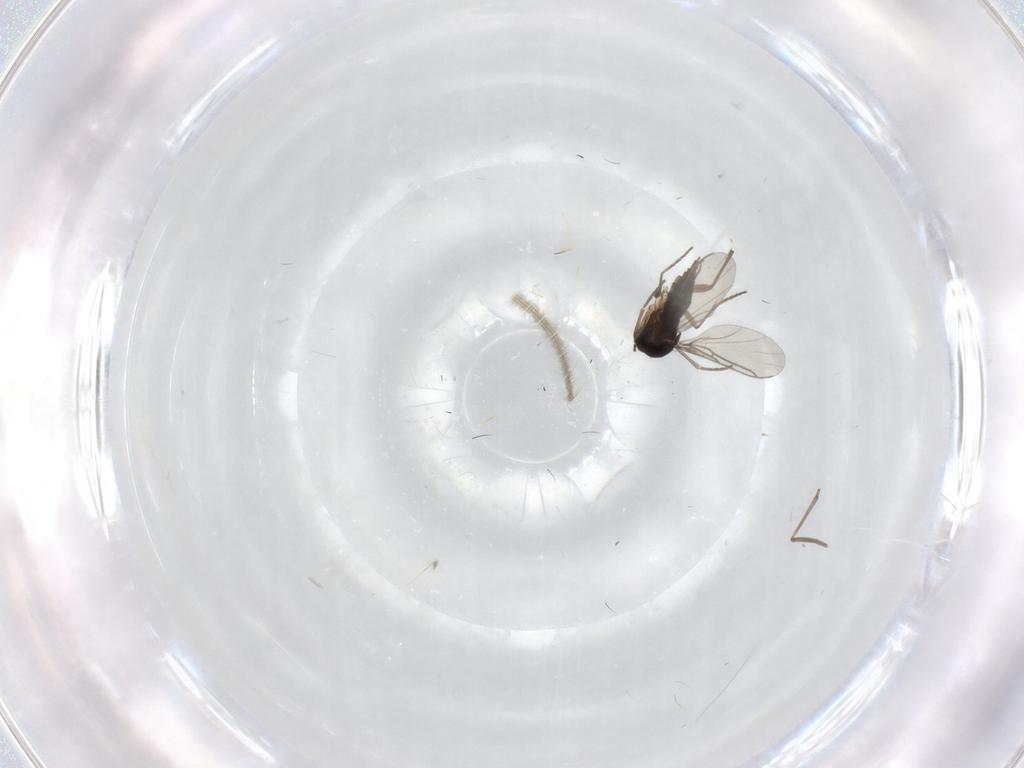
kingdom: Animalia
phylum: Arthropoda
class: Insecta
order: Diptera
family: Sciaridae
